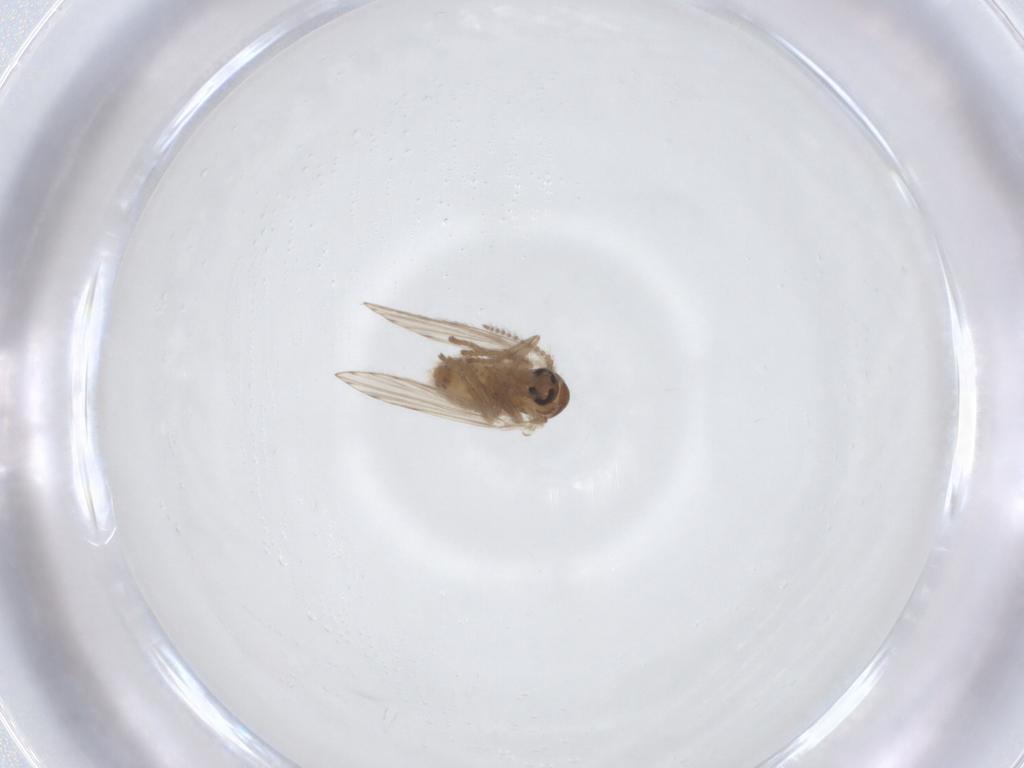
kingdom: Animalia
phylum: Arthropoda
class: Insecta
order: Diptera
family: Psychodidae
